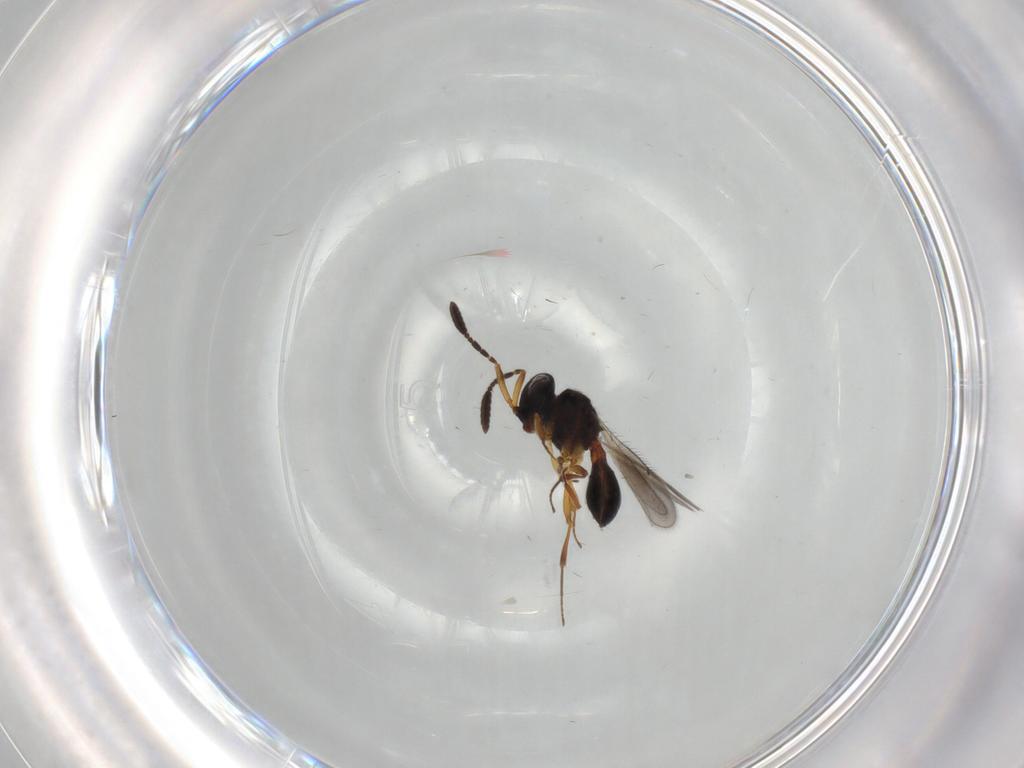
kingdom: Animalia
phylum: Arthropoda
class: Insecta
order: Hymenoptera
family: Scelionidae
